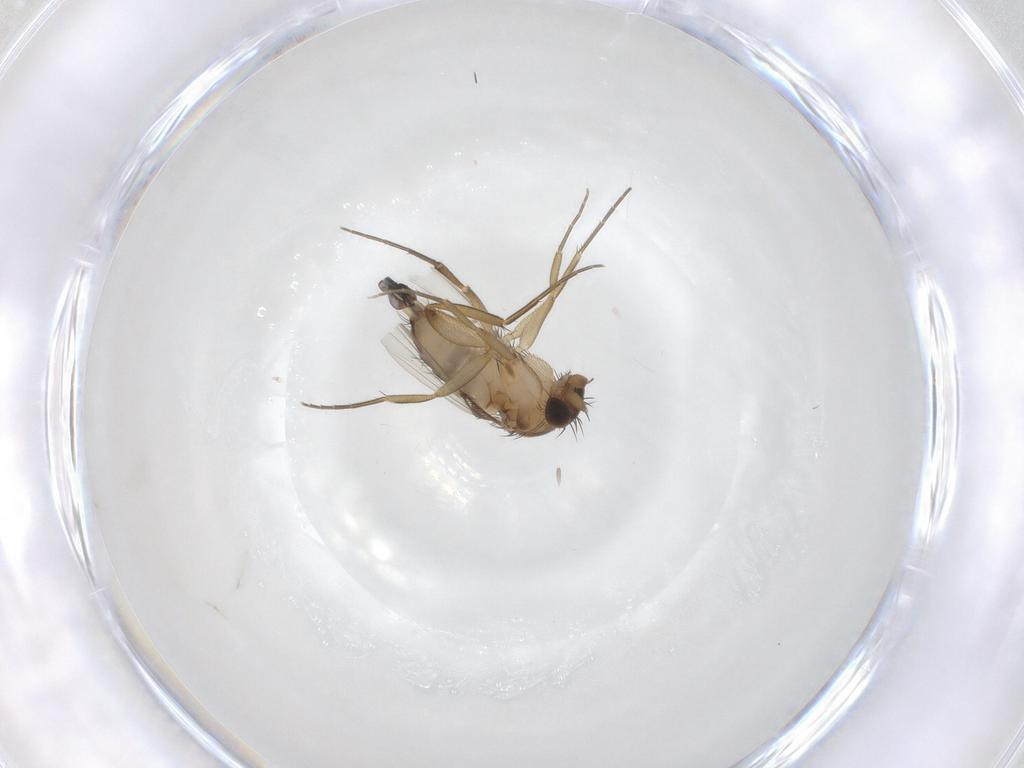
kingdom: Animalia
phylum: Arthropoda
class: Insecta
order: Diptera
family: Phoridae
